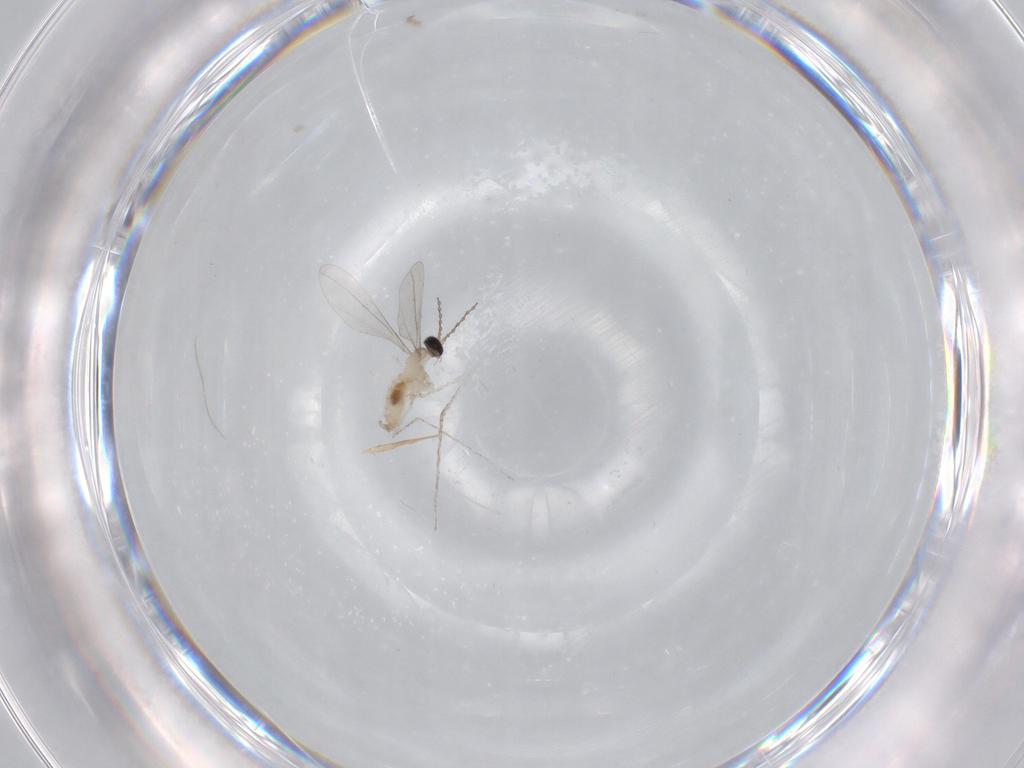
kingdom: Animalia
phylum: Arthropoda
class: Insecta
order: Diptera
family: Cecidomyiidae
